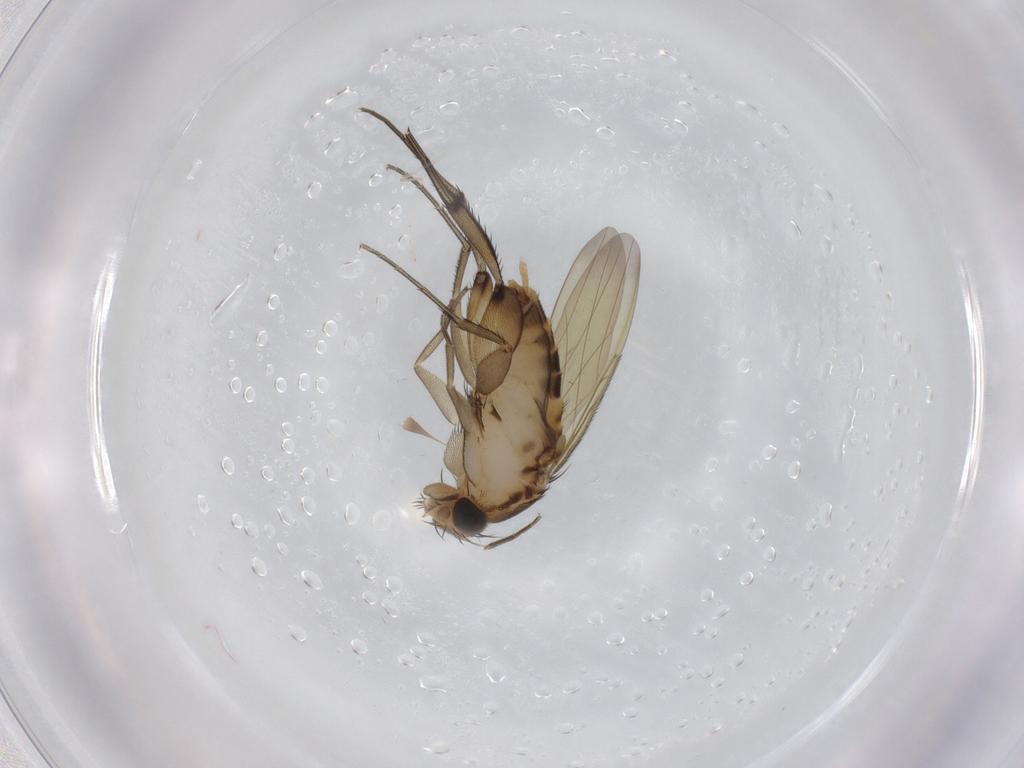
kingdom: Animalia
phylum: Arthropoda
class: Insecta
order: Diptera
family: Phoridae
